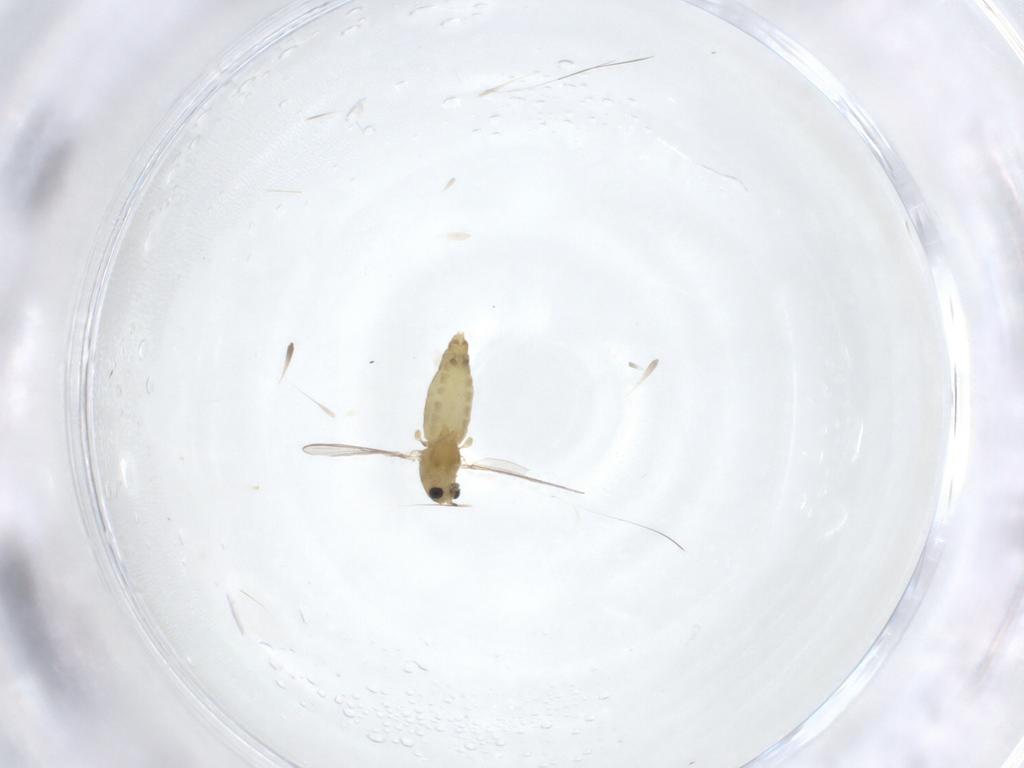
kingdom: Animalia
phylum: Arthropoda
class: Insecta
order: Diptera
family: Chironomidae
